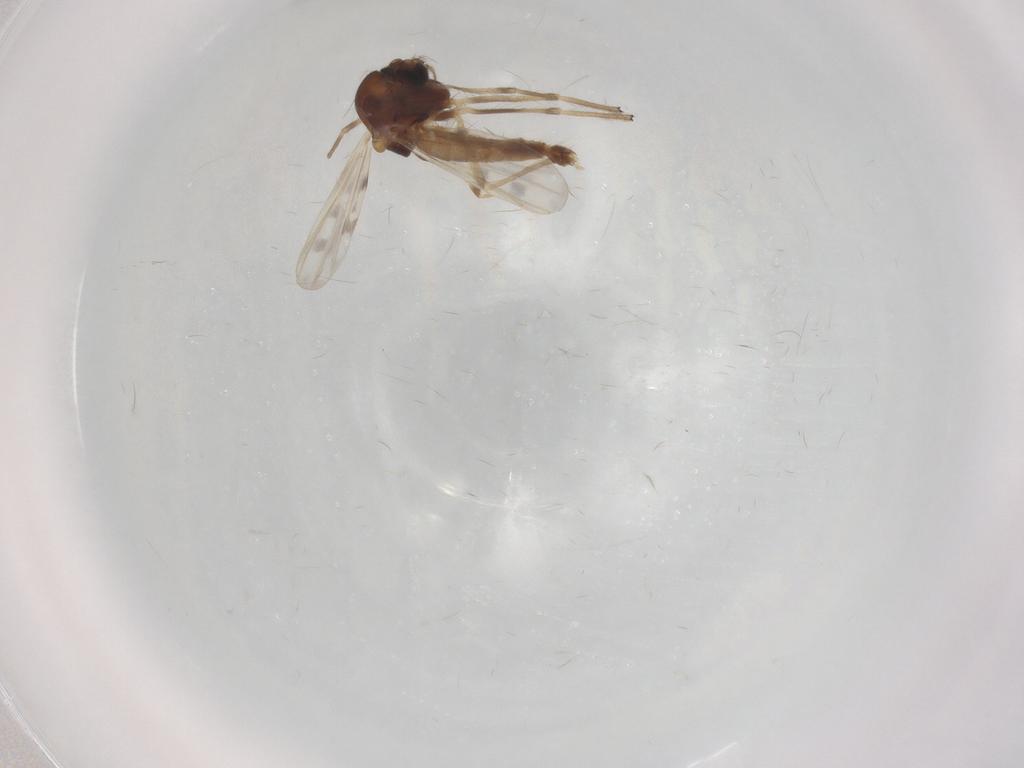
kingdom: Animalia
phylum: Arthropoda
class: Insecta
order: Diptera
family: Chironomidae
